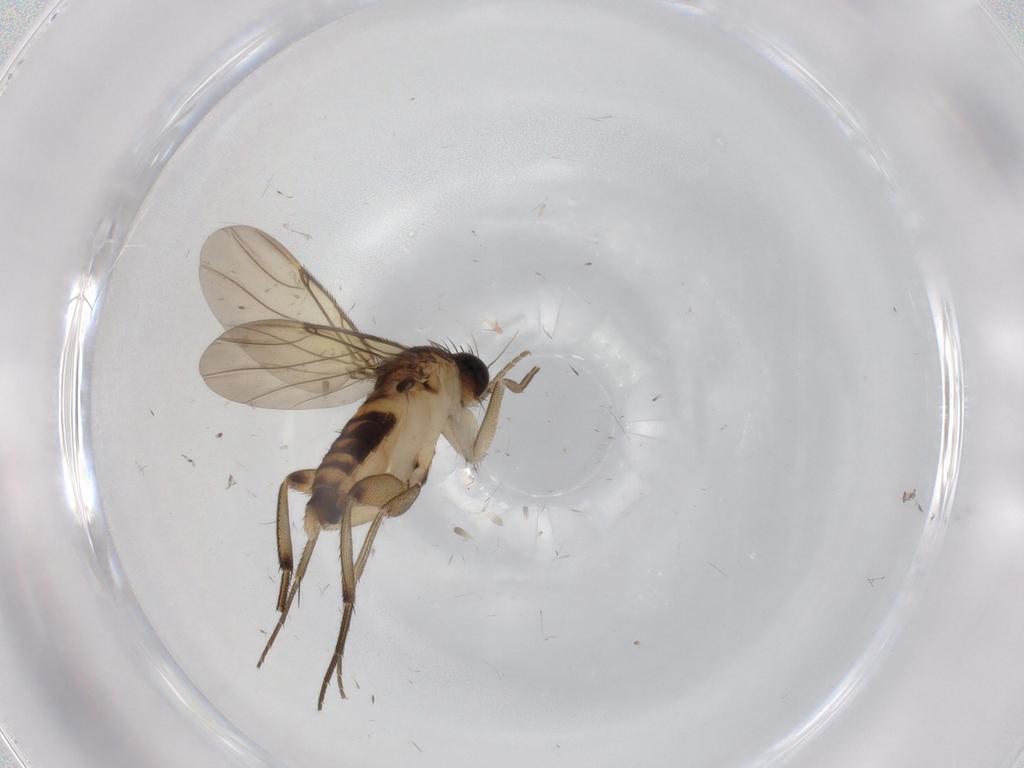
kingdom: Animalia
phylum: Arthropoda
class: Insecta
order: Diptera
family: Phoridae
